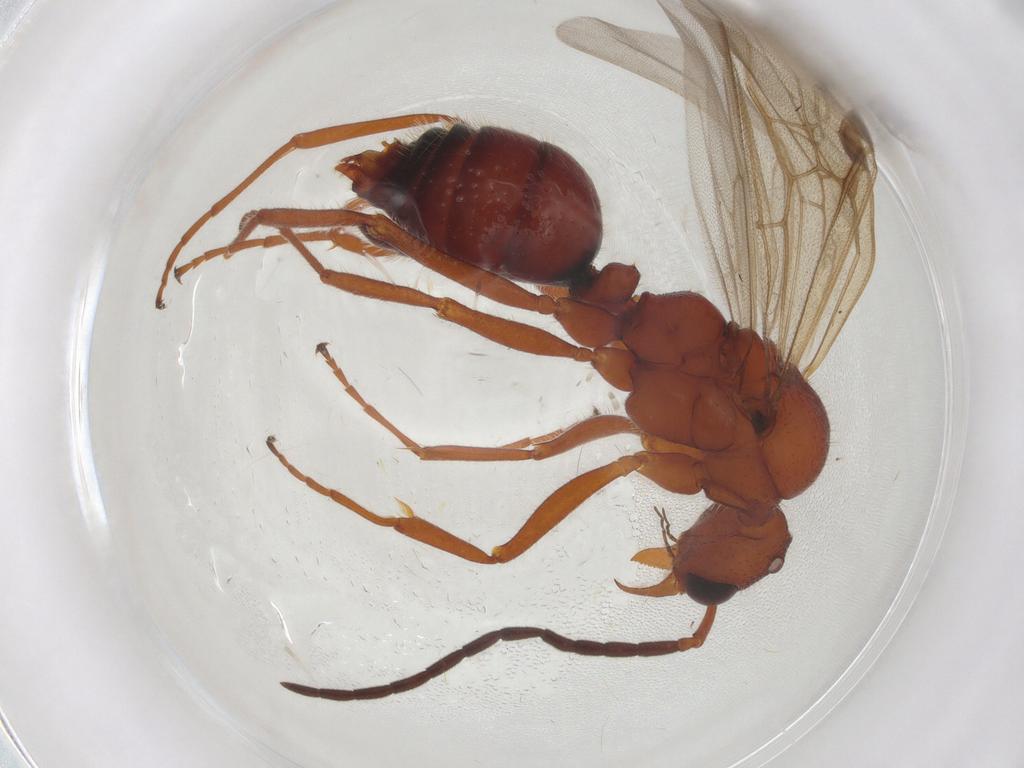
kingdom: Animalia
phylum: Arthropoda
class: Insecta
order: Hymenoptera
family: Formicidae
